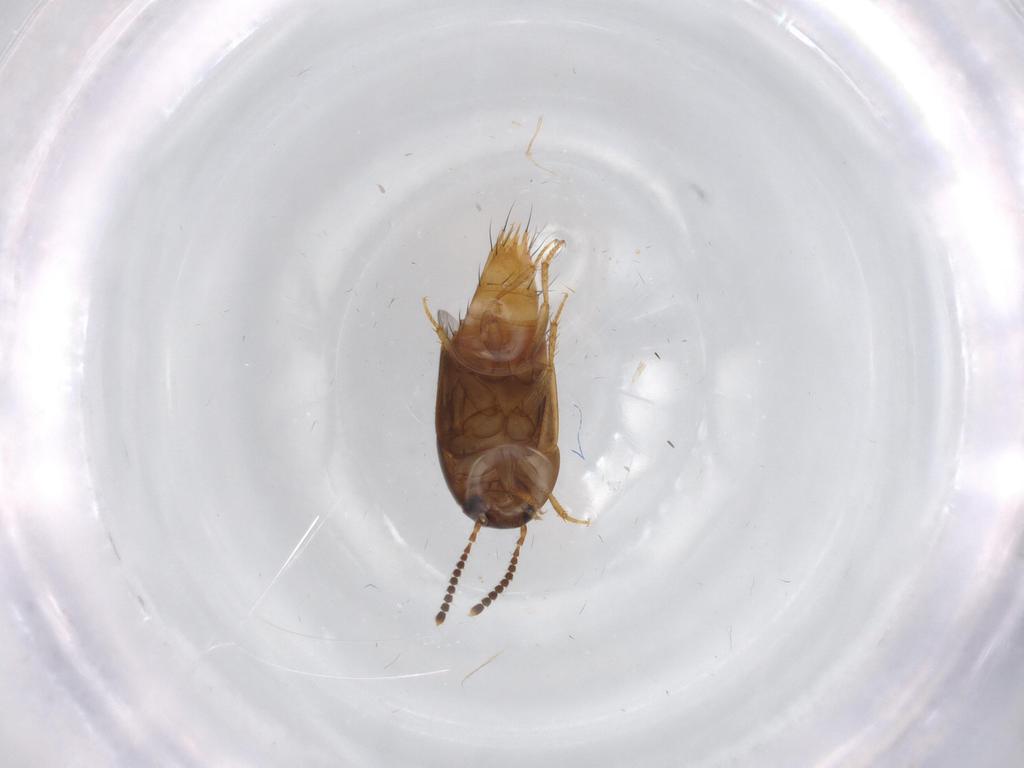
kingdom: Animalia
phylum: Arthropoda
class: Insecta
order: Coleoptera
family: Staphylinidae
